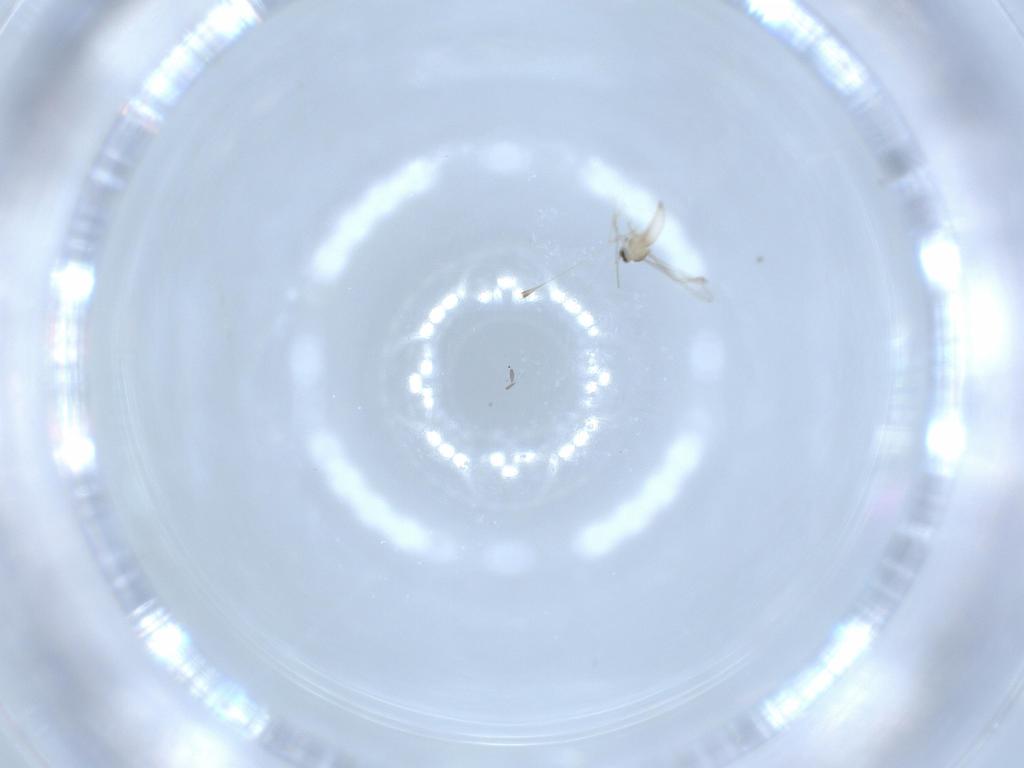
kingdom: Animalia
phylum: Arthropoda
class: Insecta
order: Diptera
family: Cecidomyiidae
